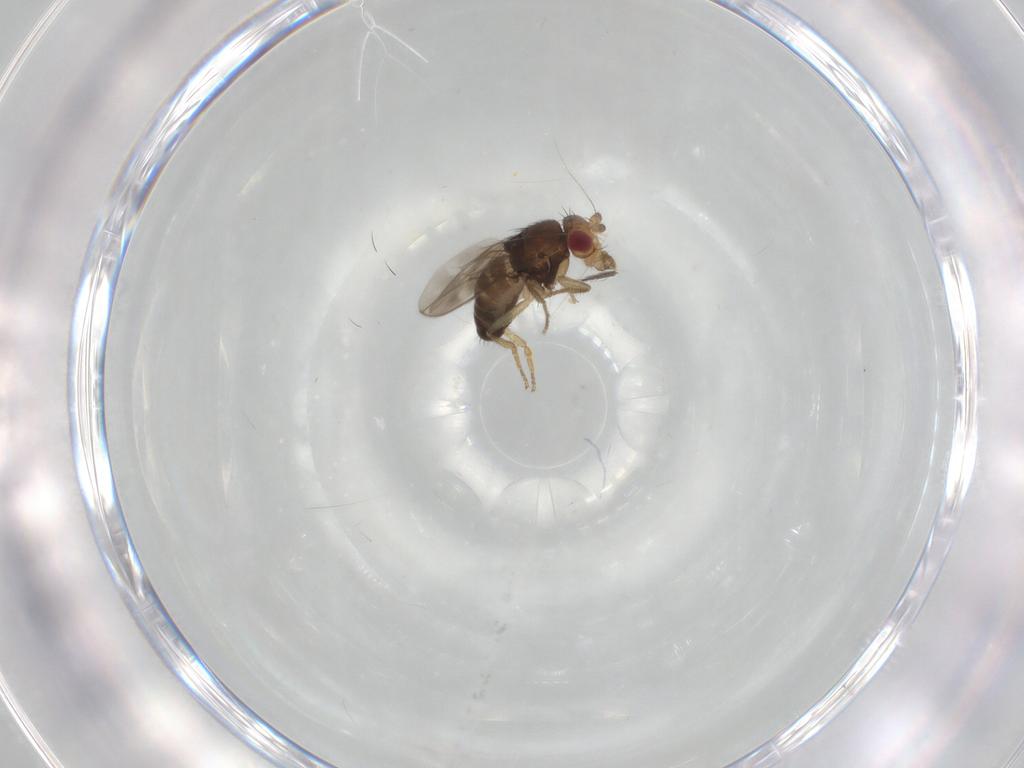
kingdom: Animalia
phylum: Arthropoda
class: Insecta
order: Diptera
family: Sphaeroceridae
